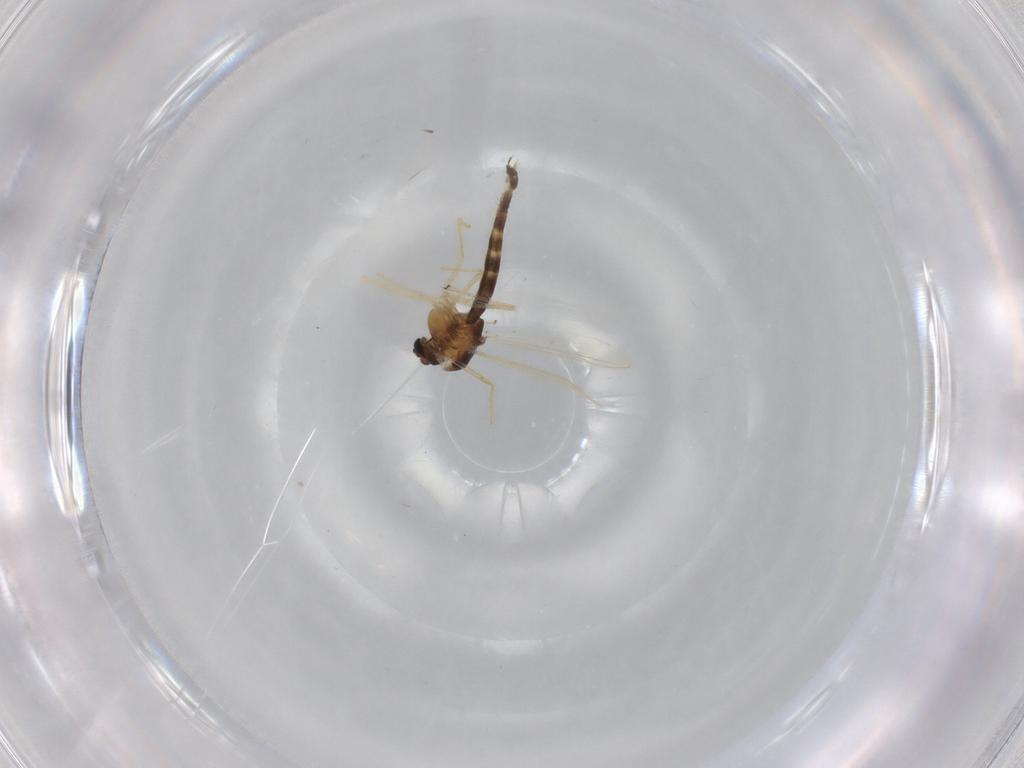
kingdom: Animalia
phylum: Arthropoda
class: Insecta
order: Diptera
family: Chironomidae
